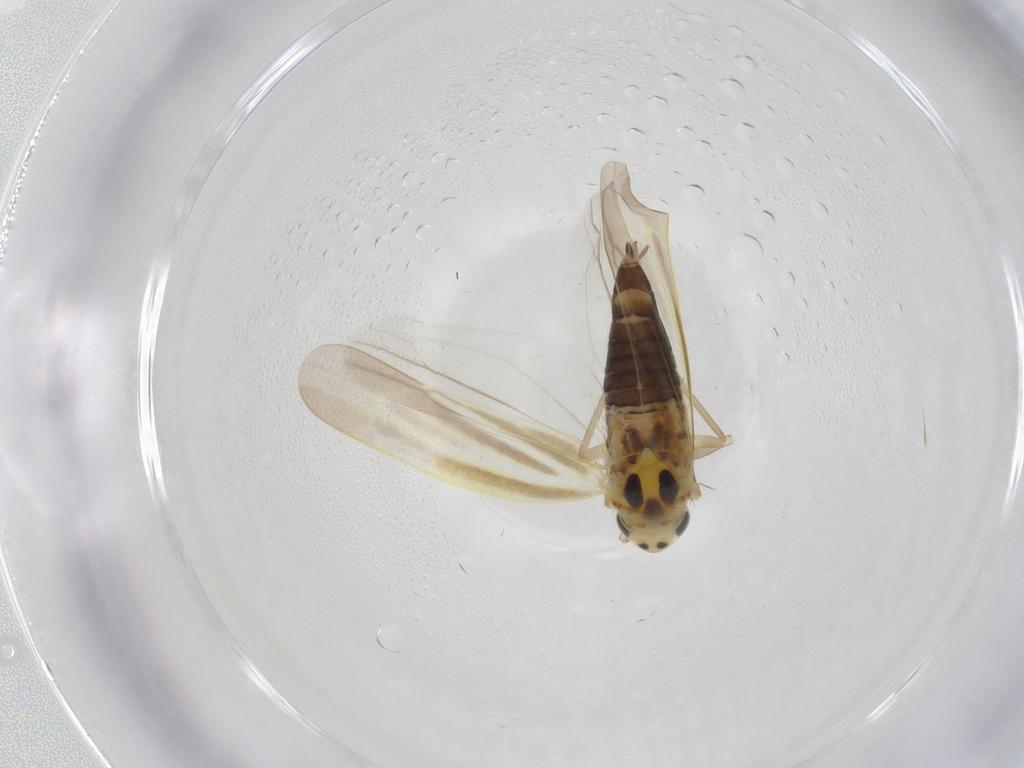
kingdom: Animalia
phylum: Arthropoda
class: Insecta
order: Hemiptera
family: Cicadellidae
